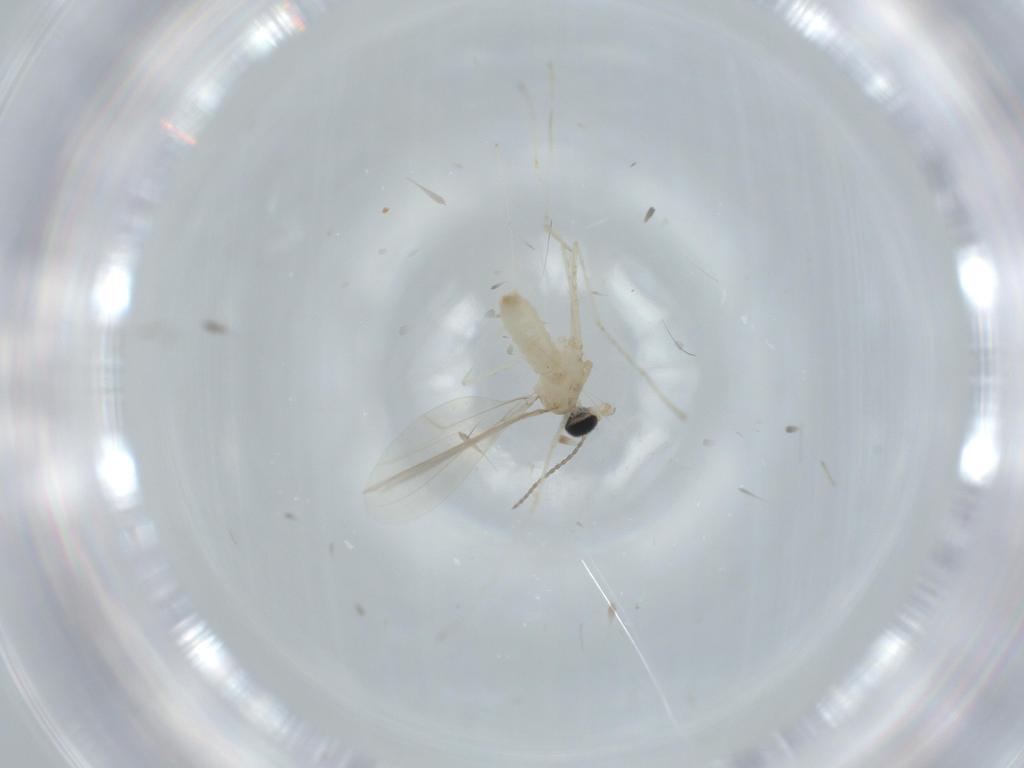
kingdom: Animalia
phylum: Arthropoda
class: Insecta
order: Diptera
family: Cecidomyiidae
